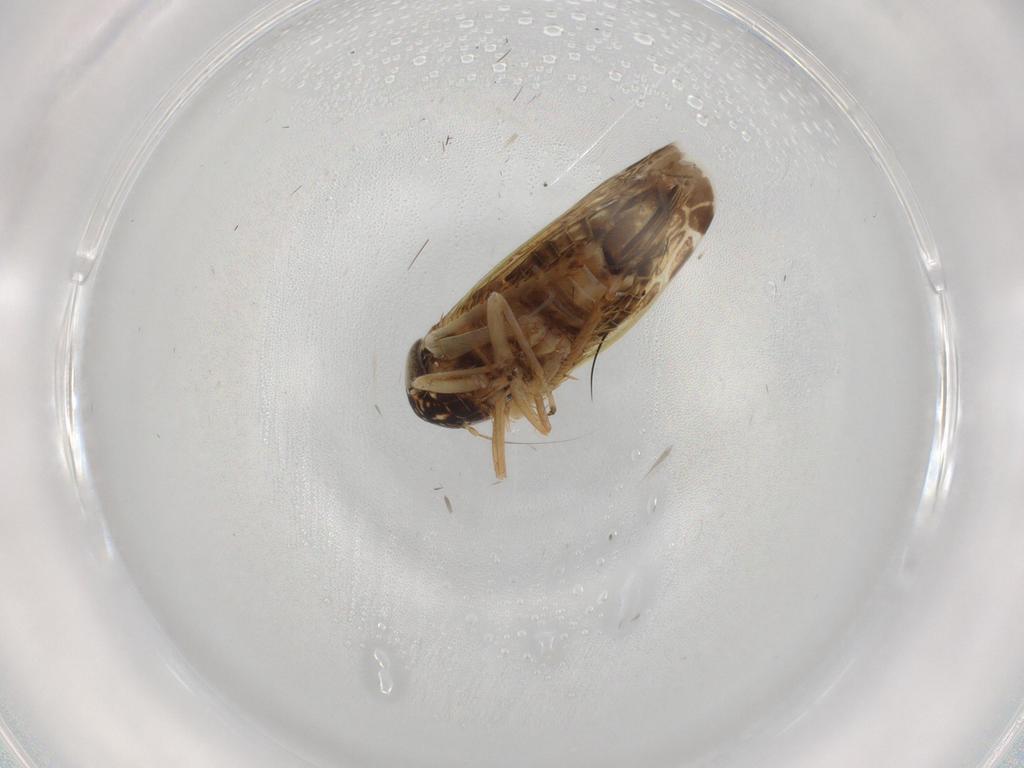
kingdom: Animalia
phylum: Arthropoda
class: Insecta
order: Hemiptera
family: Cicadellidae
